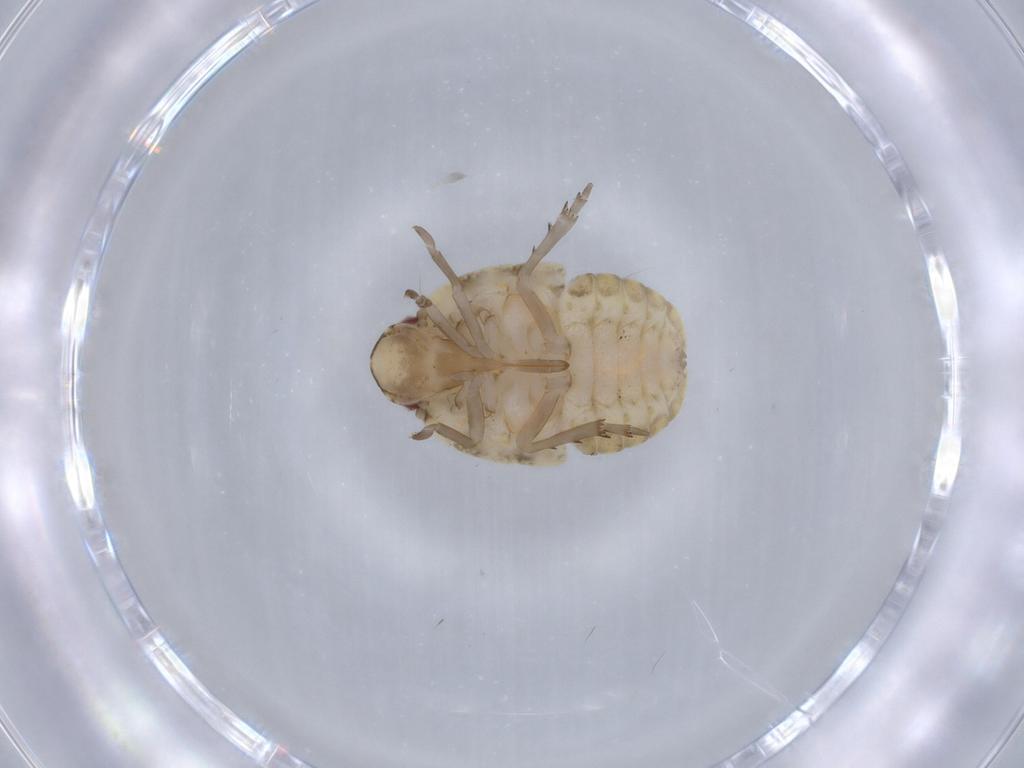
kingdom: Animalia
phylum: Arthropoda
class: Insecta
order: Hemiptera
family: Flatidae
